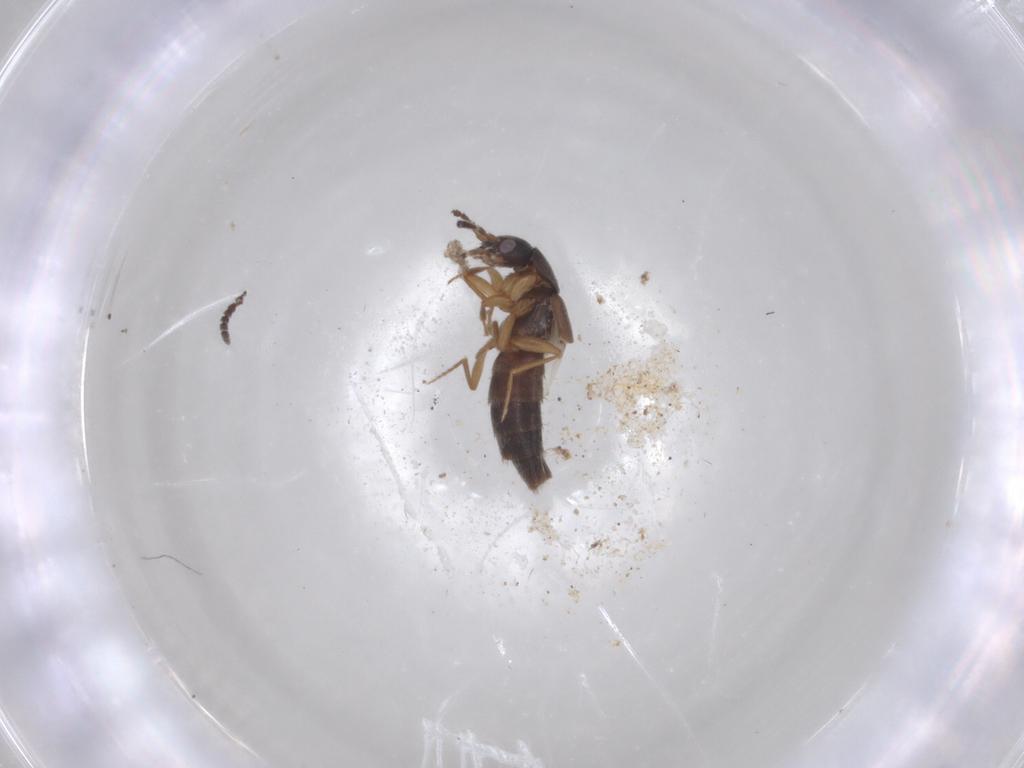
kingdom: Animalia
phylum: Arthropoda
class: Insecta
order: Coleoptera
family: Staphylinidae
